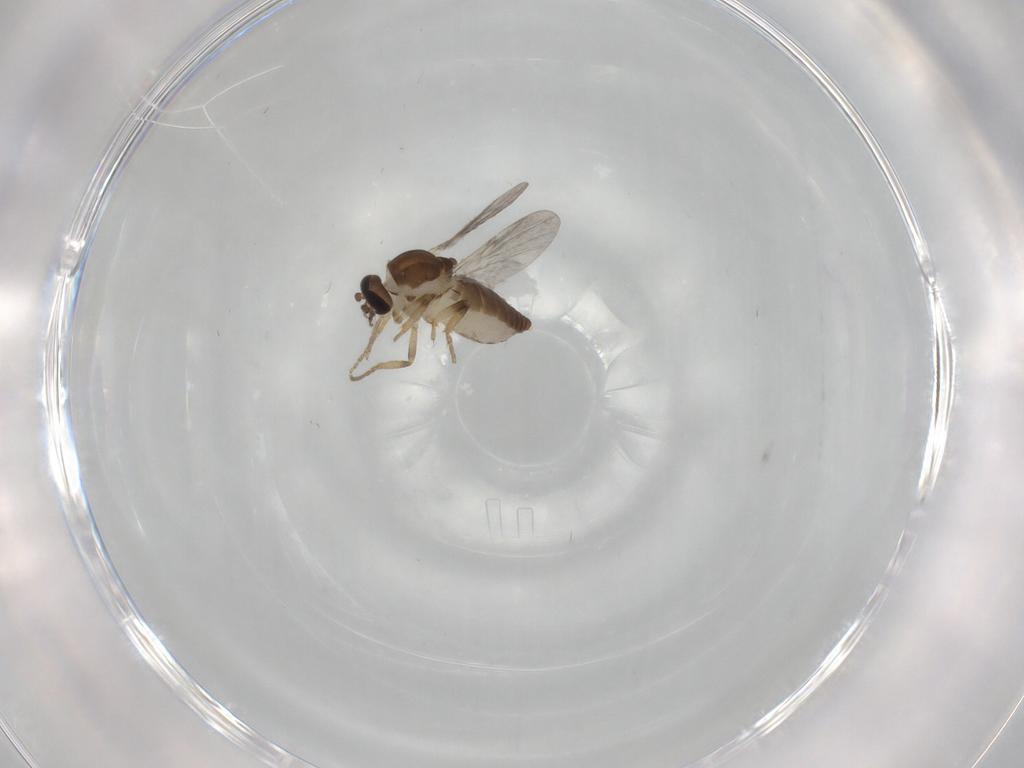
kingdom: Animalia
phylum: Arthropoda
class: Insecta
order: Diptera
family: Ceratopogonidae
